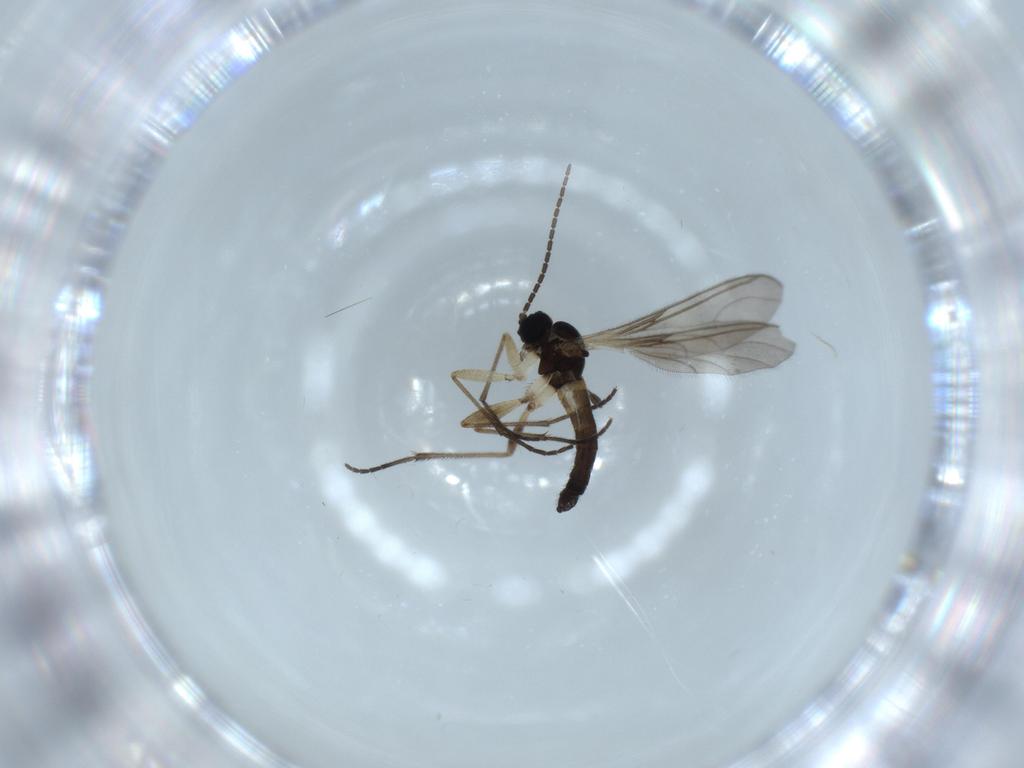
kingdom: Animalia
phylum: Arthropoda
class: Insecta
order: Diptera
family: Sciaridae
